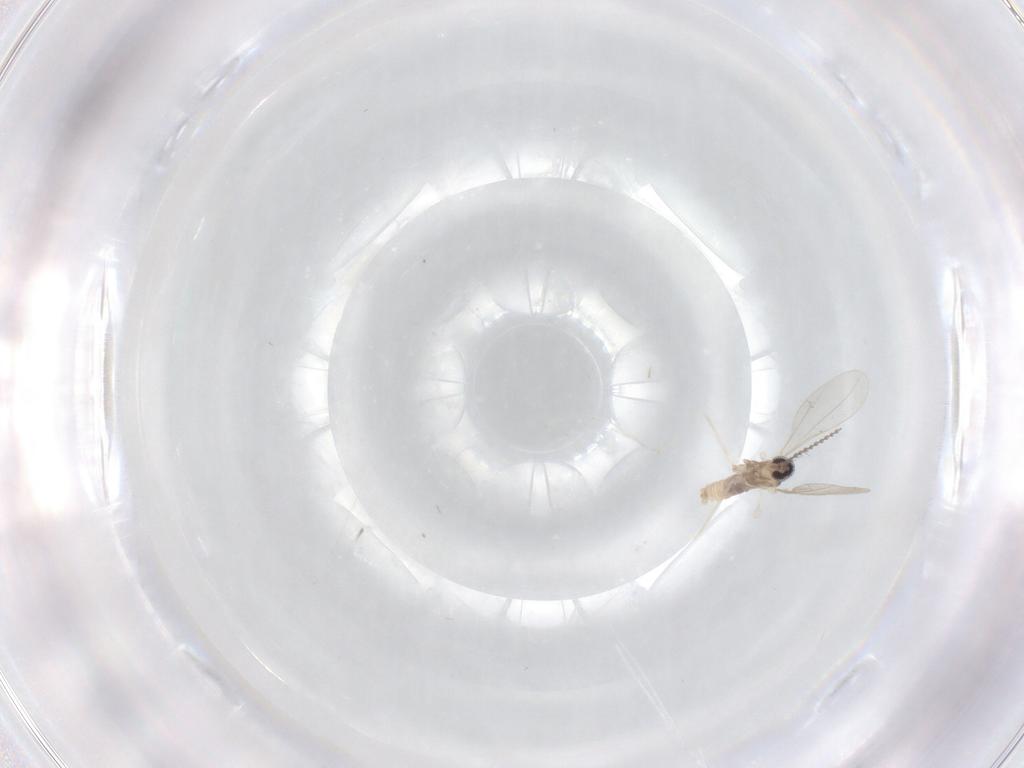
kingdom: Animalia
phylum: Arthropoda
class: Insecta
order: Diptera
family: Cecidomyiidae
